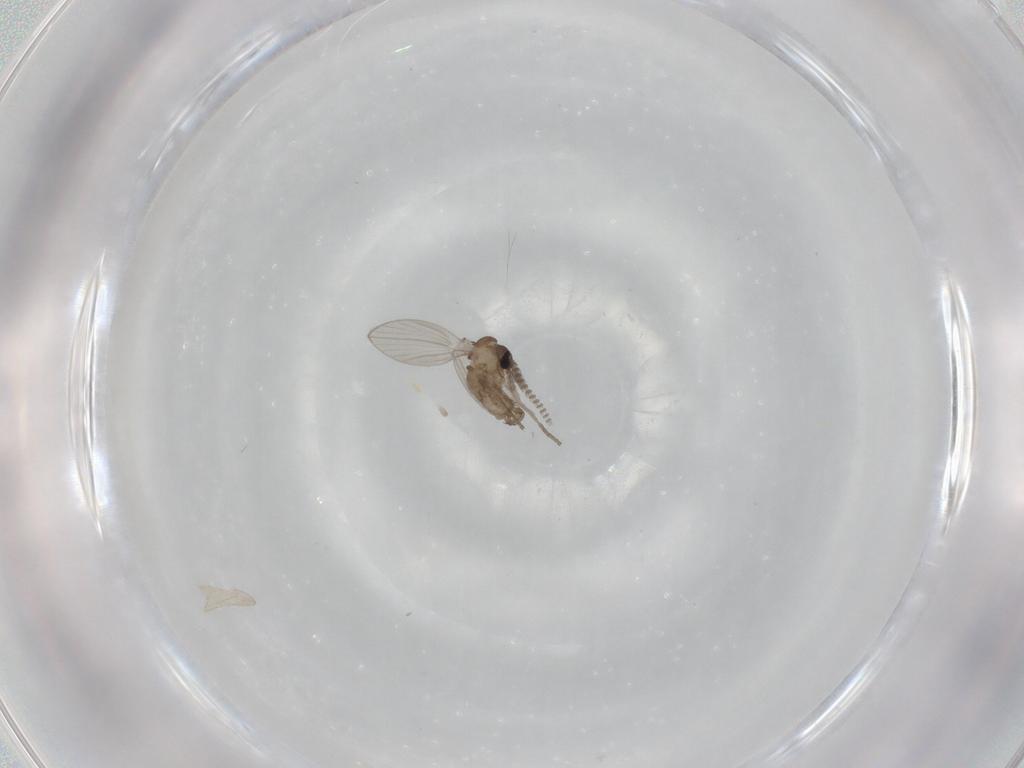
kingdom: Animalia
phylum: Arthropoda
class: Insecta
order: Diptera
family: Psychodidae
